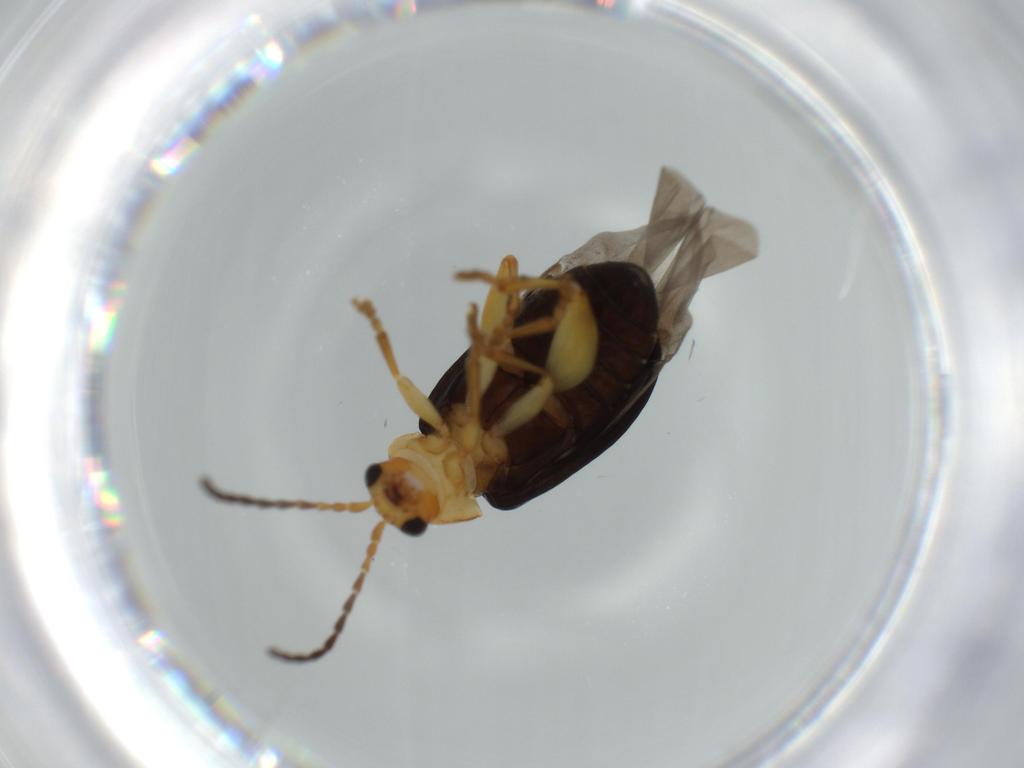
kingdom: Animalia
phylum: Arthropoda
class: Insecta
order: Coleoptera
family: Chrysomelidae
